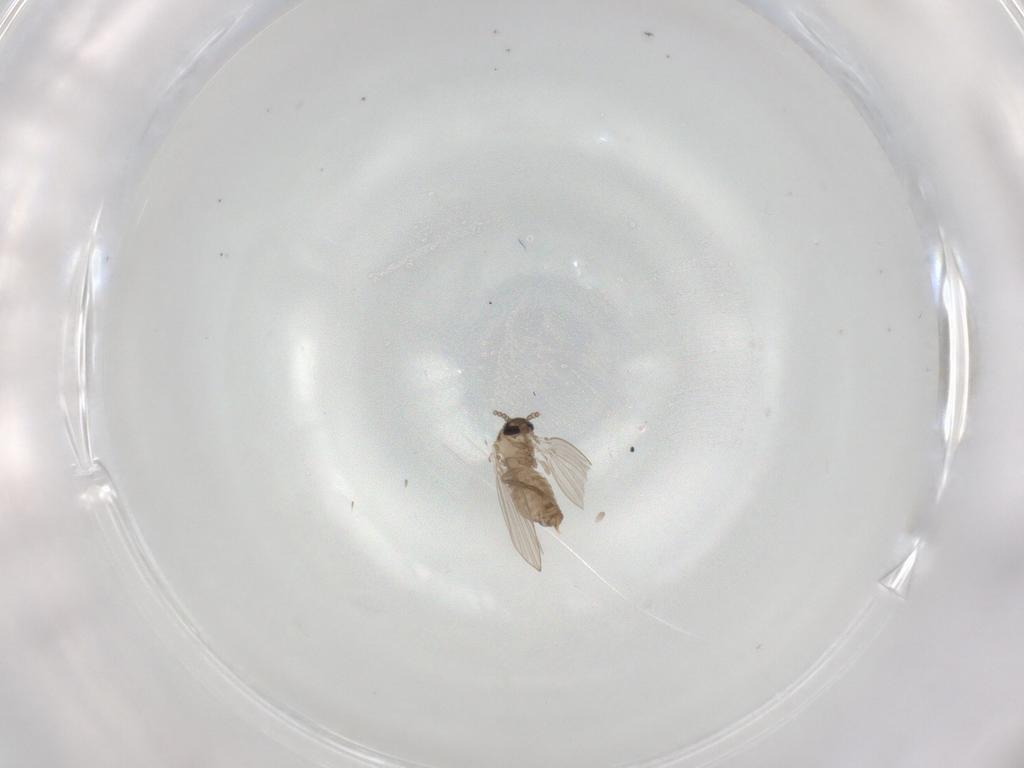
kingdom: Animalia
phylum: Arthropoda
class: Insecta
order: Diptera
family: Psychodidae
